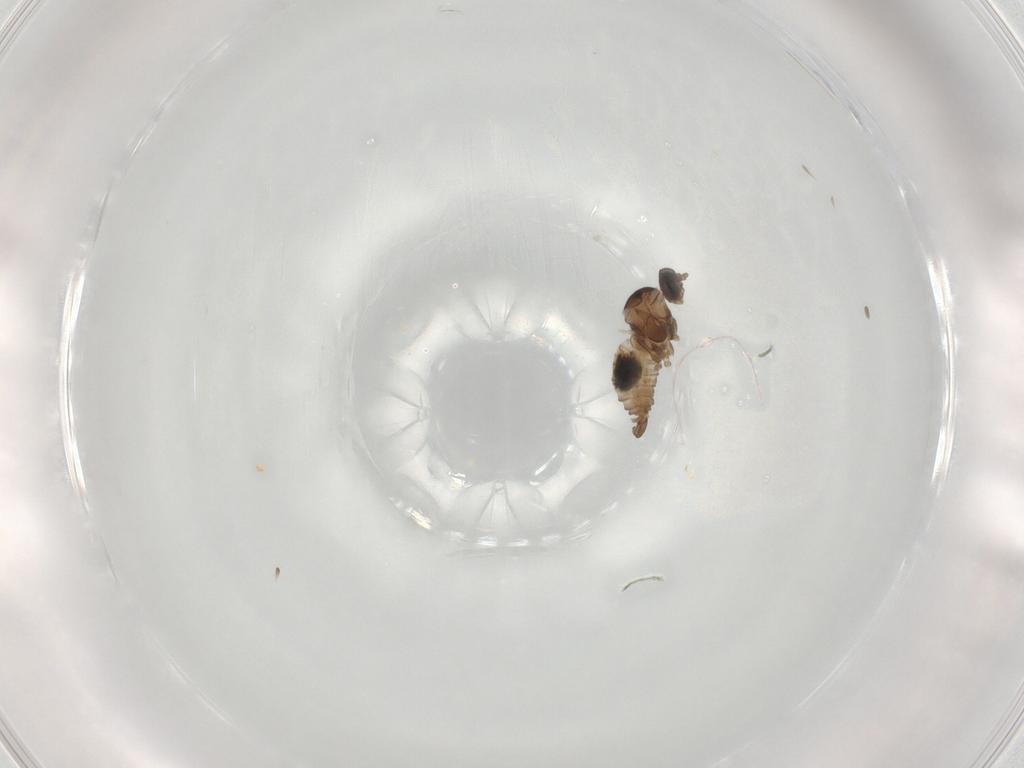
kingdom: Animalia
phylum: Arthropoda
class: Insecta
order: Diptera
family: Cecidomyiidae
